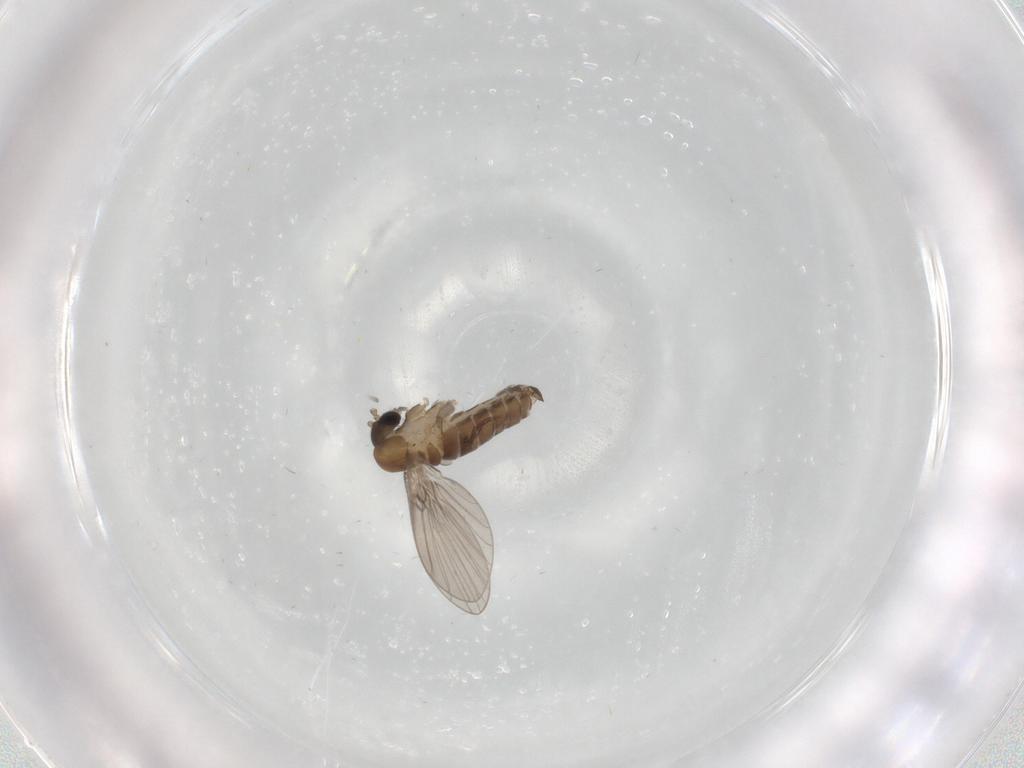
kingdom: Animalia
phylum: Arthropoda
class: Insecta
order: Diptera
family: Psychodidae
